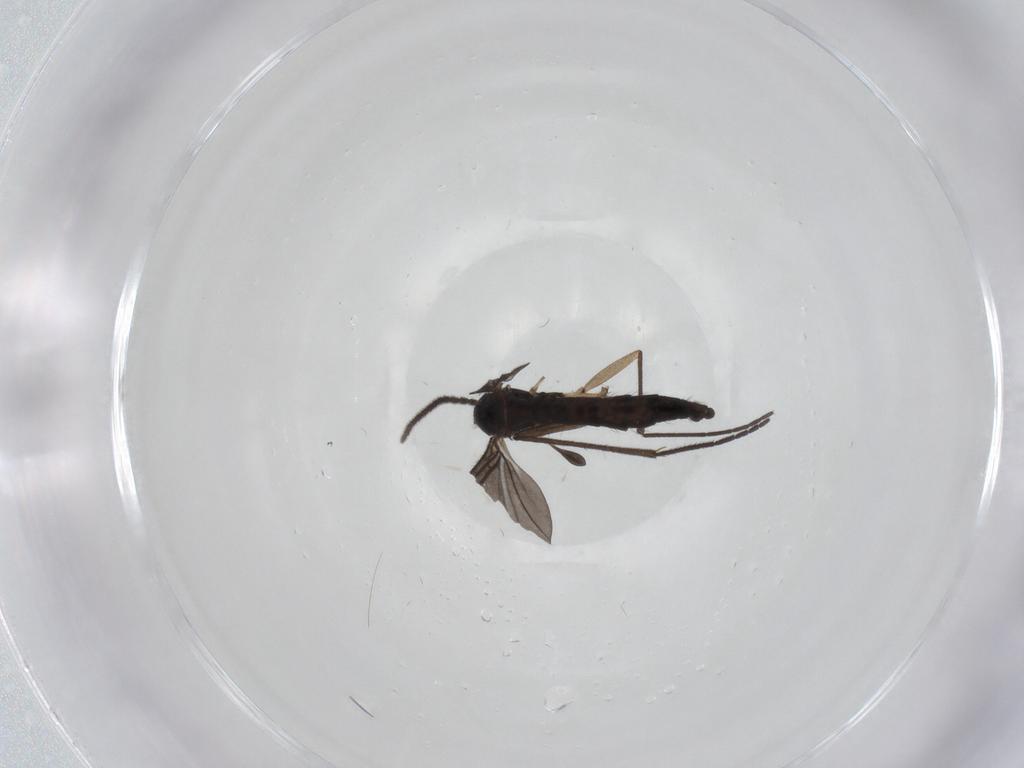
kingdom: Animalia
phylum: Arthropoda
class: Insecta
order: Diptera
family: Sciaridae
